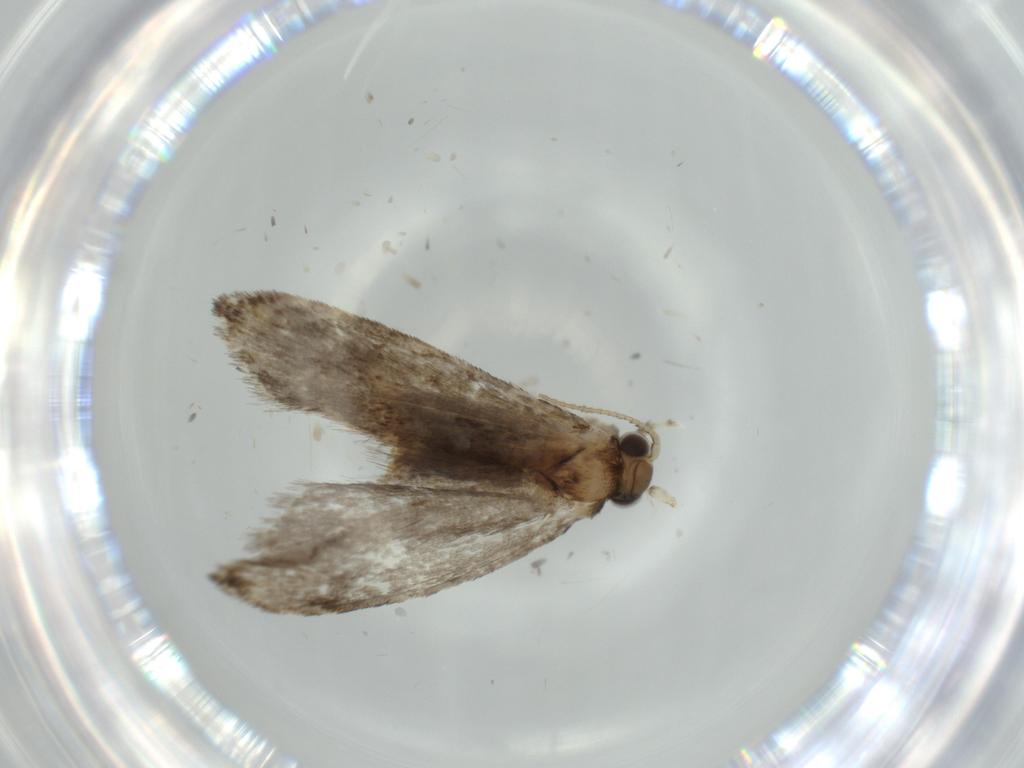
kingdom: Animalia
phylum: Arthropoda
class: Insecta
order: Lepidoptera
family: Tineidae
